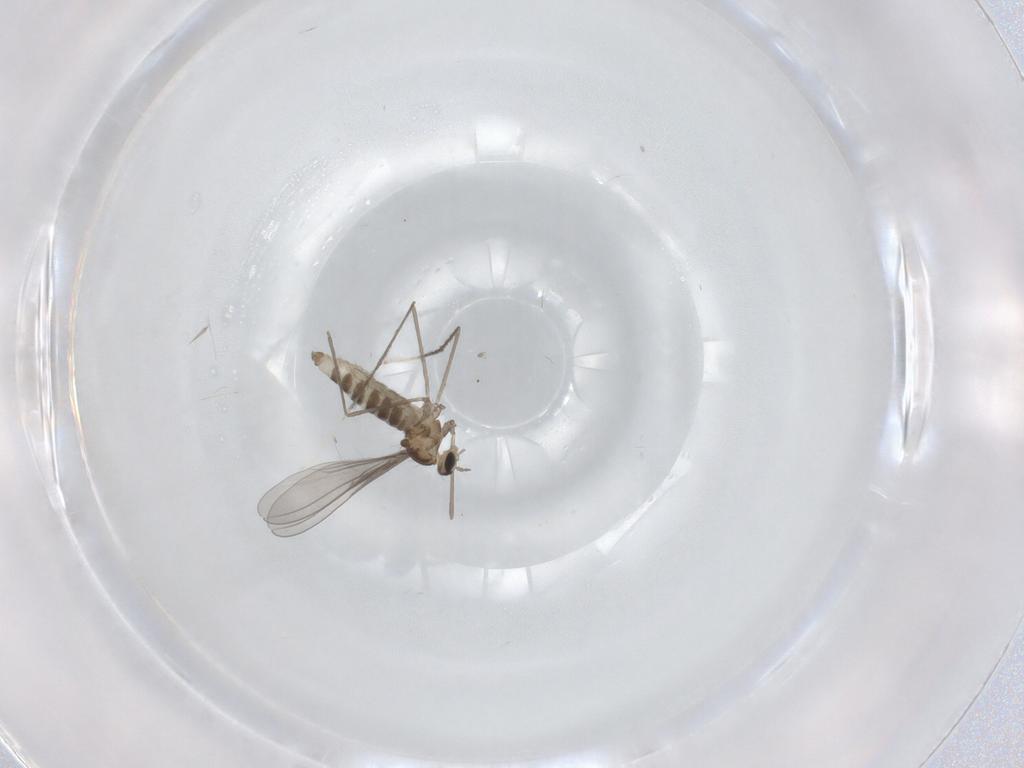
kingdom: Animalia
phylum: Arthropoda
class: Insecta
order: Diptera
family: Cecidomyiidae
